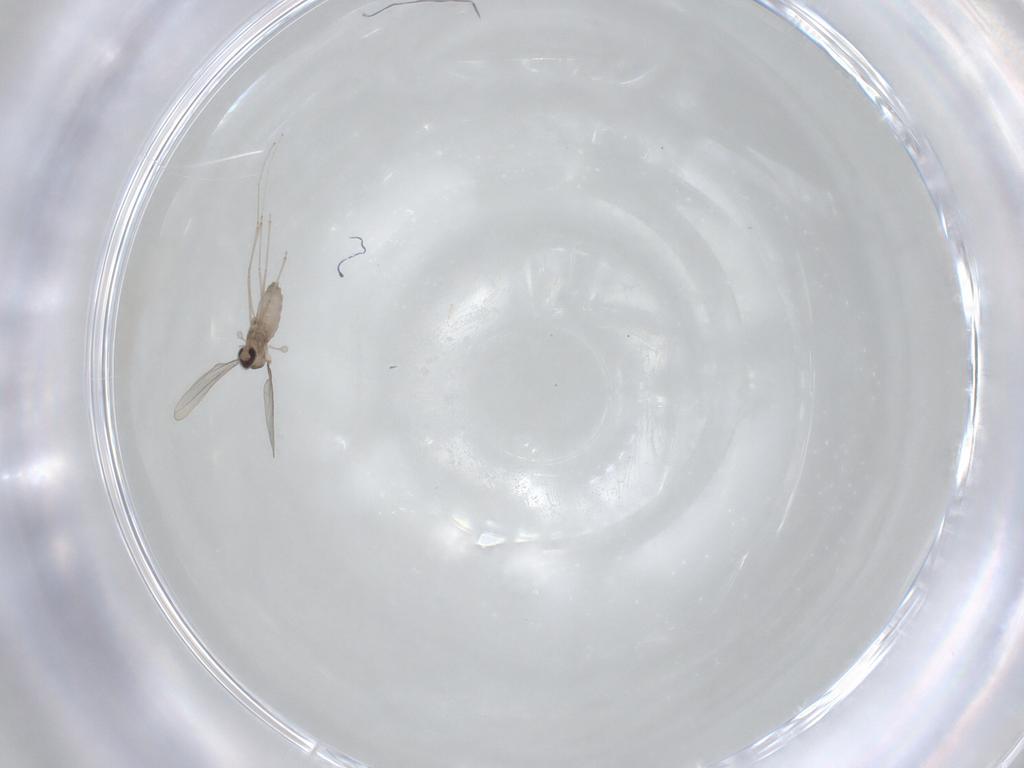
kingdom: Animalia
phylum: Arthropoda
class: Insecta
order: Diptera
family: Cecidomyiidae
